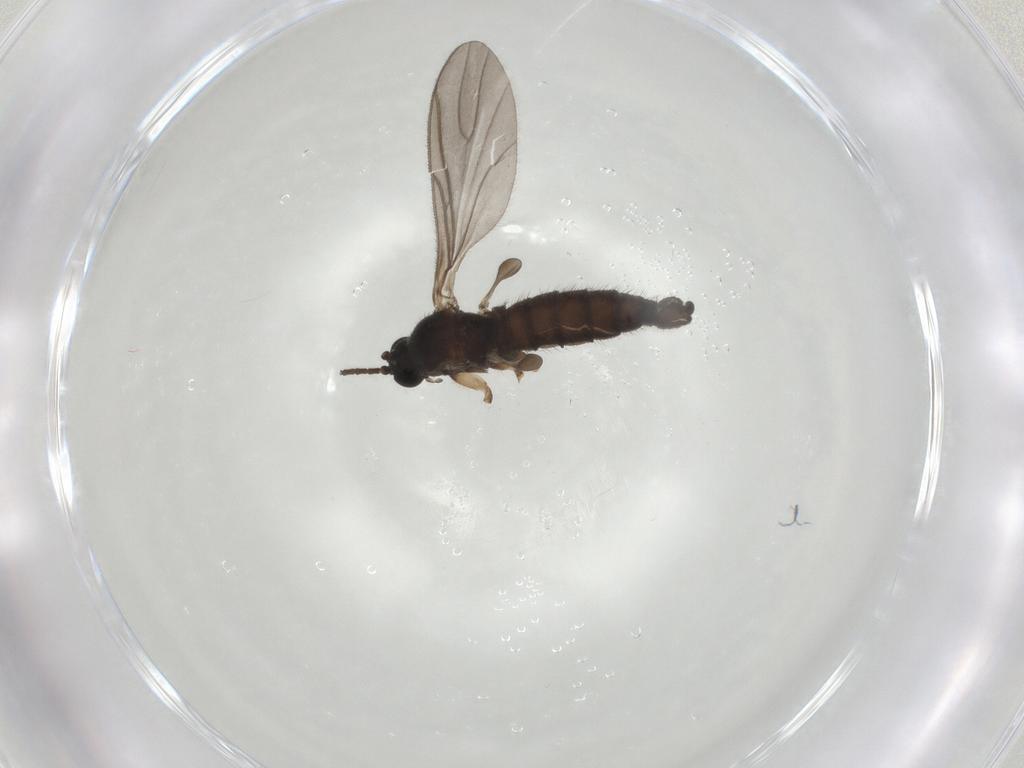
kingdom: Animalia
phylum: Arthropoda
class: Insecta
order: Diptera
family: Sciaridae
